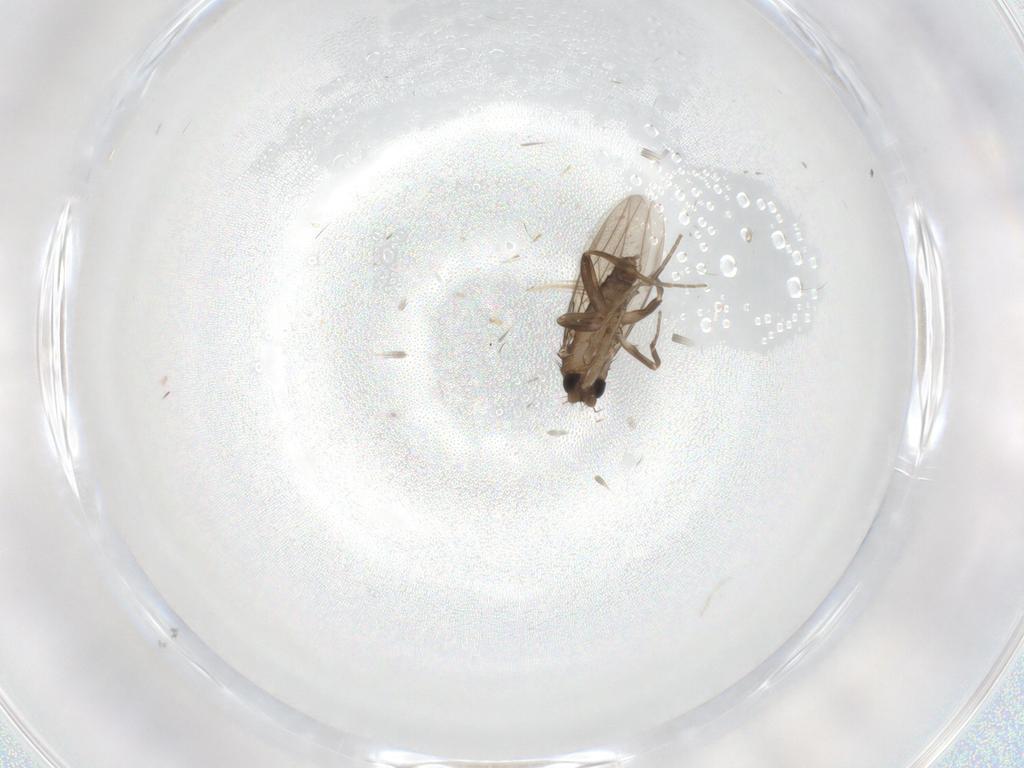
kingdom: Animalia
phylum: Arthropoda
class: Insecta
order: Diptera
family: Phoridae
